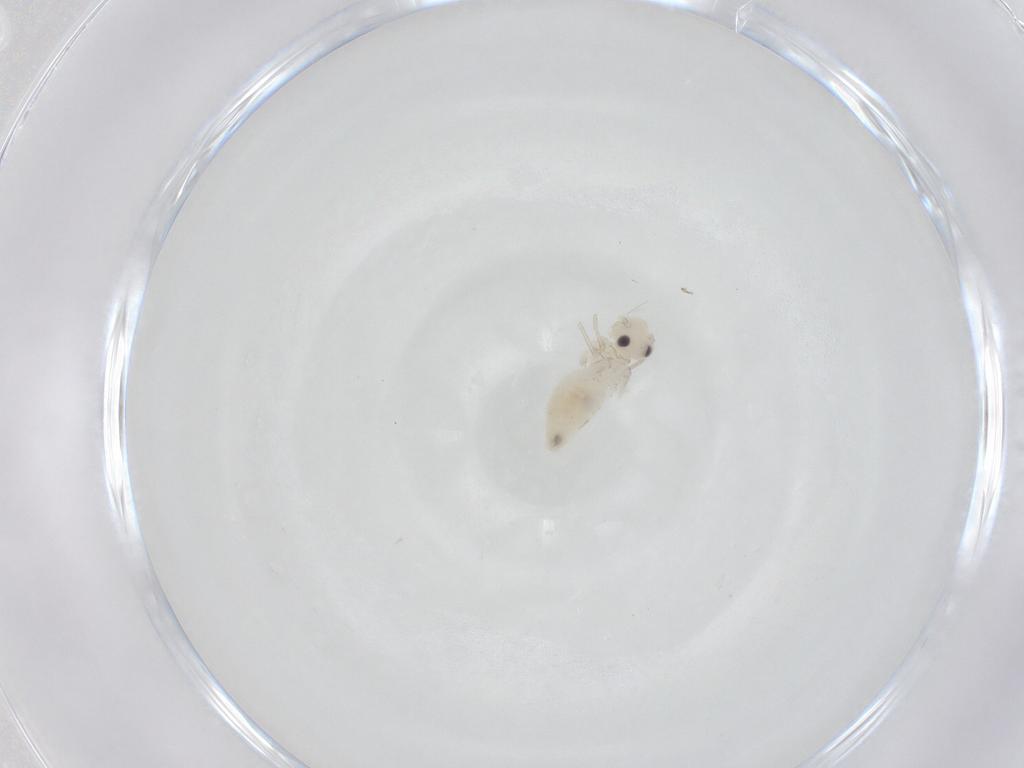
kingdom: Animalia
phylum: Arthropoda
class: Insecta
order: Psocodea
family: Caeciliusidae
